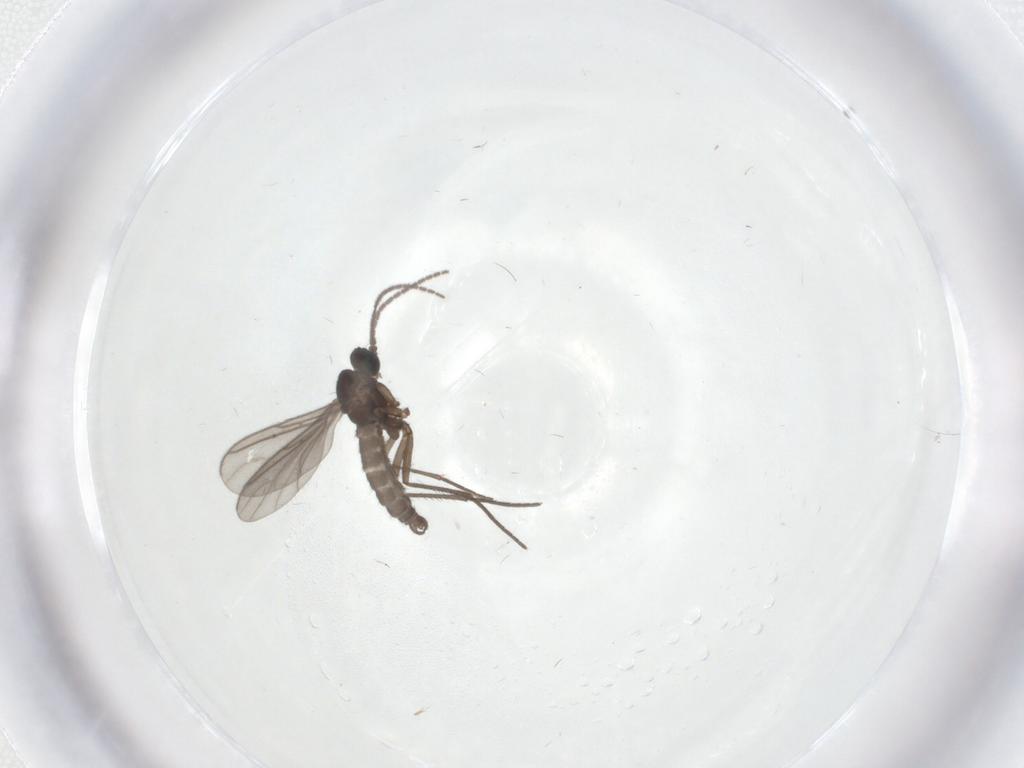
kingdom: Animalia
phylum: Arthropoda
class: Insecta
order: Diptera
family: Sciaridae
